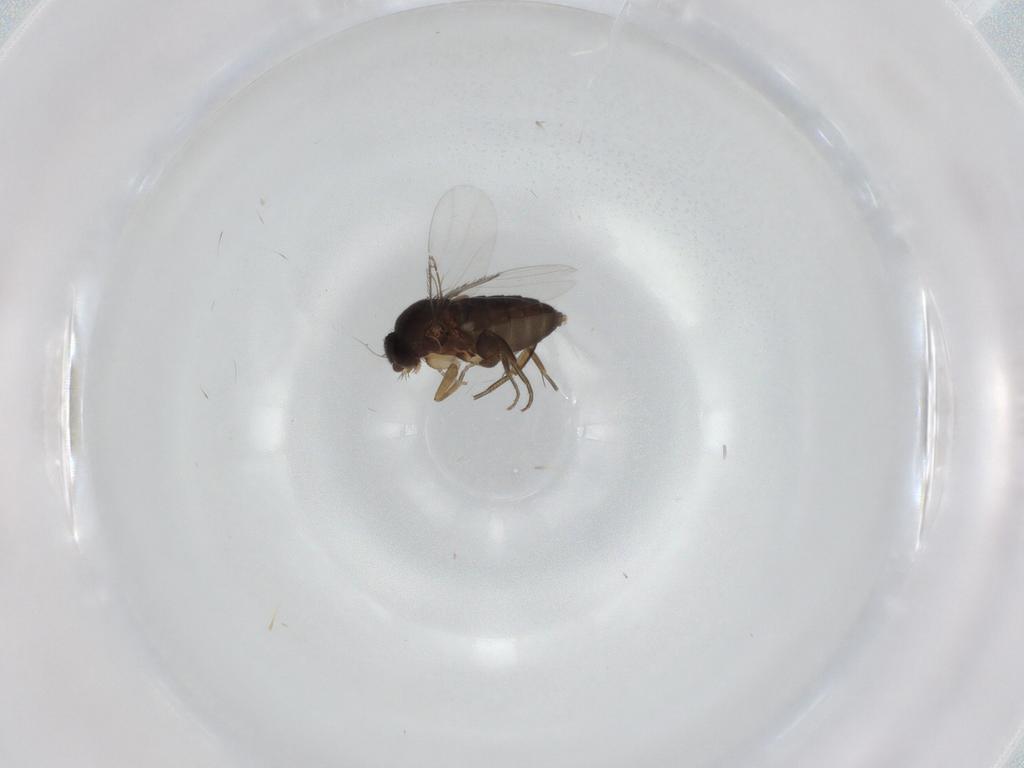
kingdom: Animalia
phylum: Arthropoda
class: Insecta
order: Diptera
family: Phoridae
